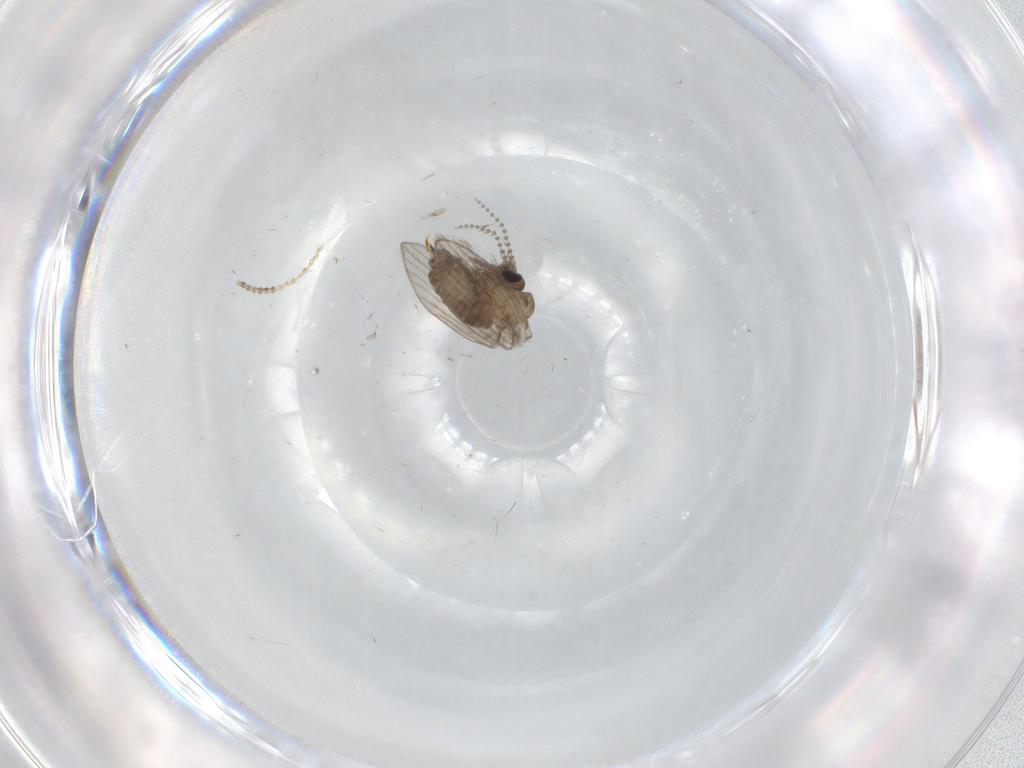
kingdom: Animalia
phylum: Arthropoda
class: Insecta
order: Diptera
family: Psychodidae
